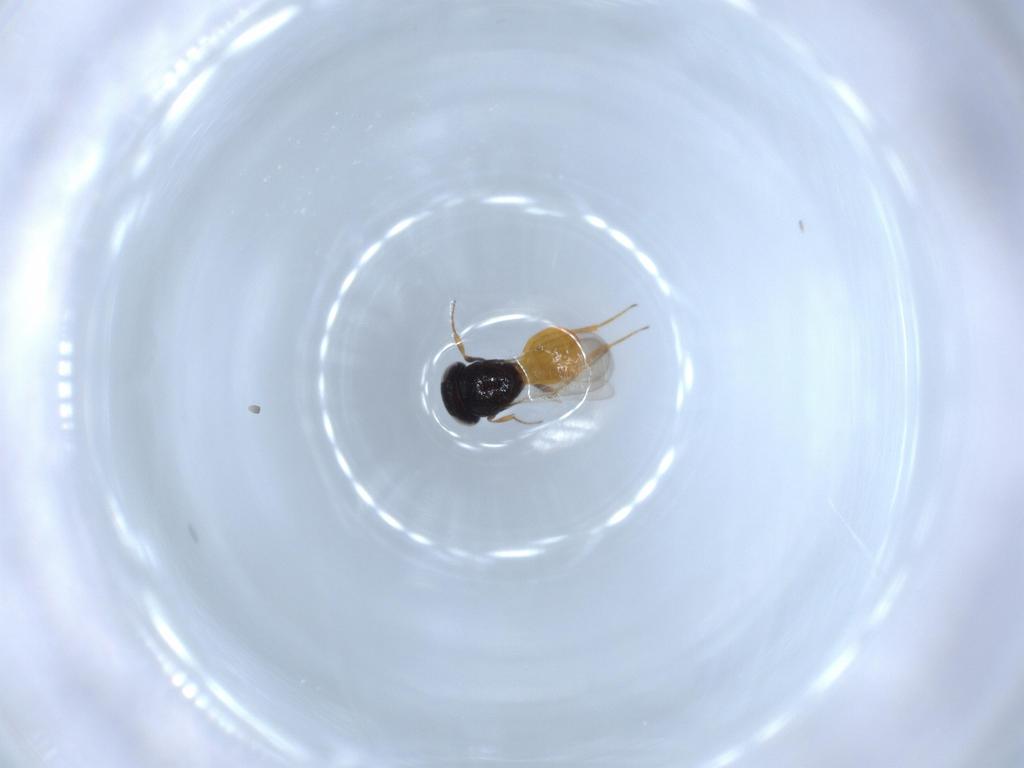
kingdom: Animalia
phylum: Arthropoda
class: Insecta
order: Hymenoptera
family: Scelionidae
